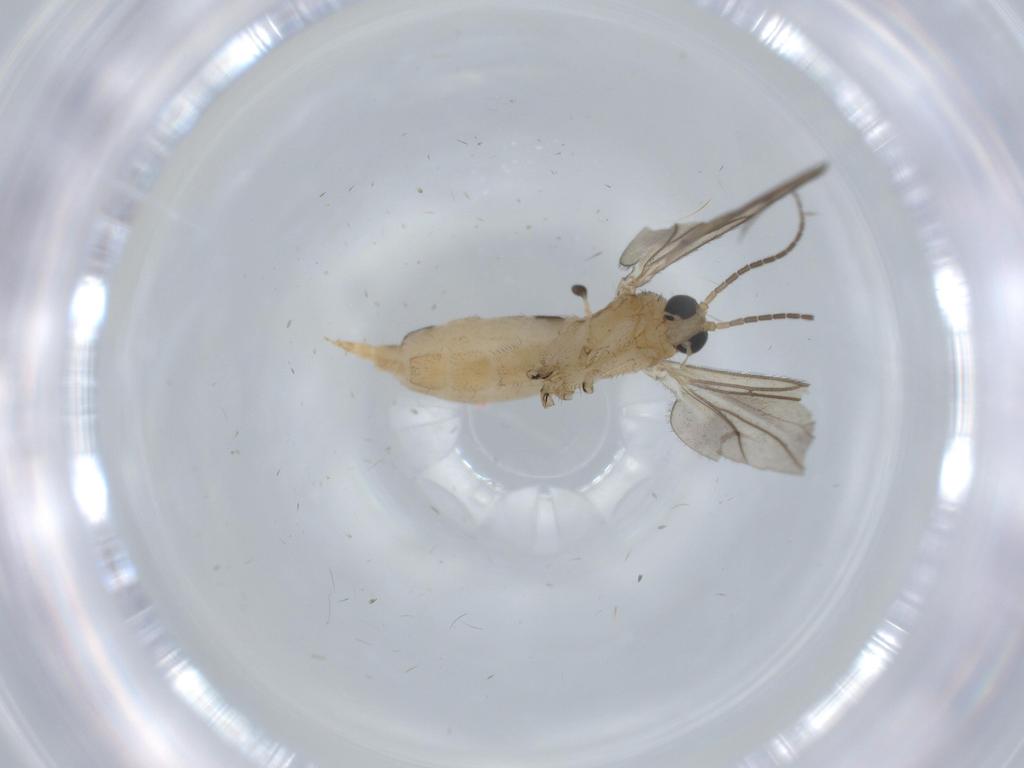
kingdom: Animalia
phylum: Arthropoda
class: Insecta
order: Diptera
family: Sciaridae
